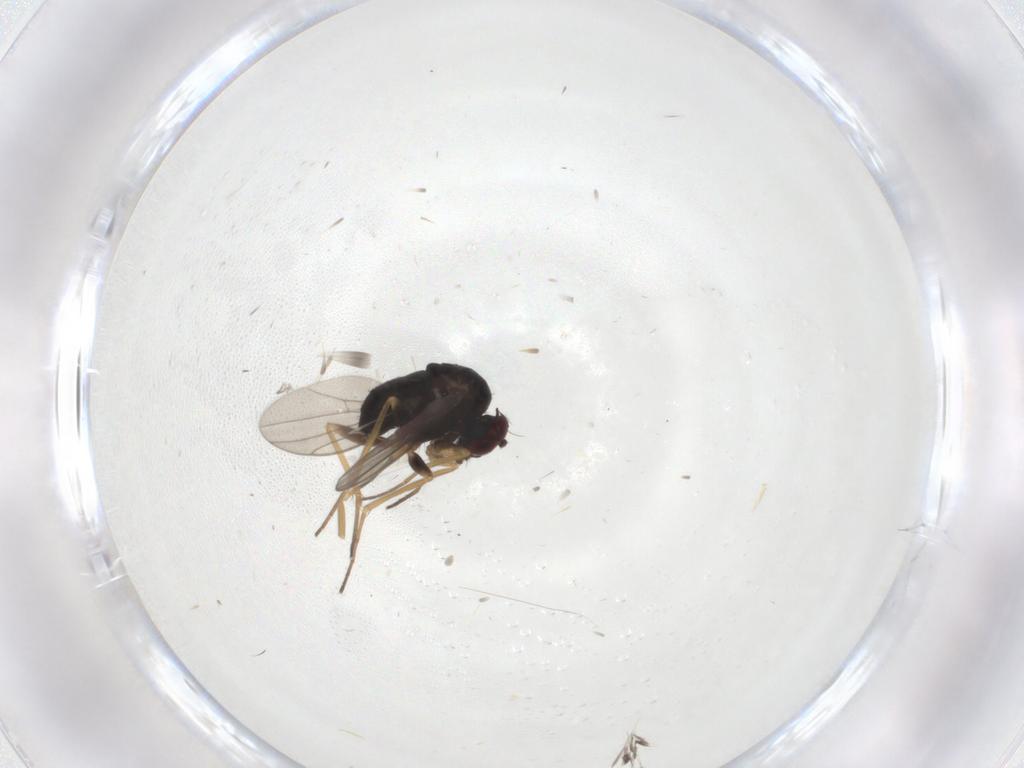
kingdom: Animalia
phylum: Arthropoda
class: Insecta
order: Diptera
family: Dolichopodidae
